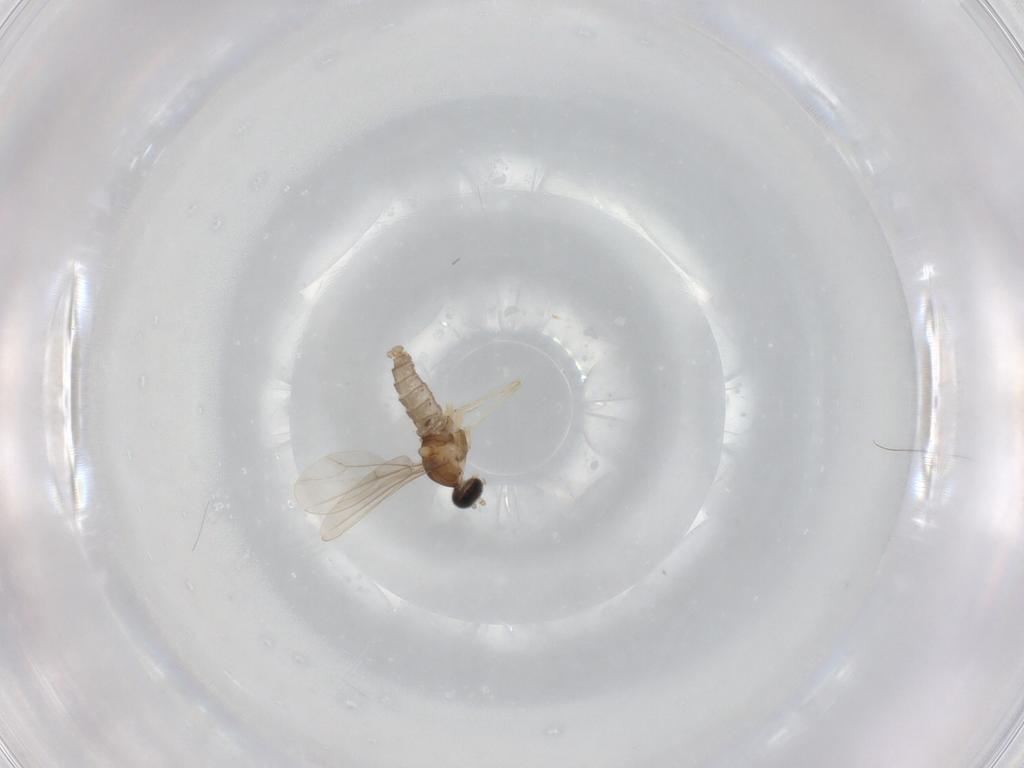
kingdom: Animalia
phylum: Arthropoda
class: Insecta
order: Diptera
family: Cecidomyiidae
